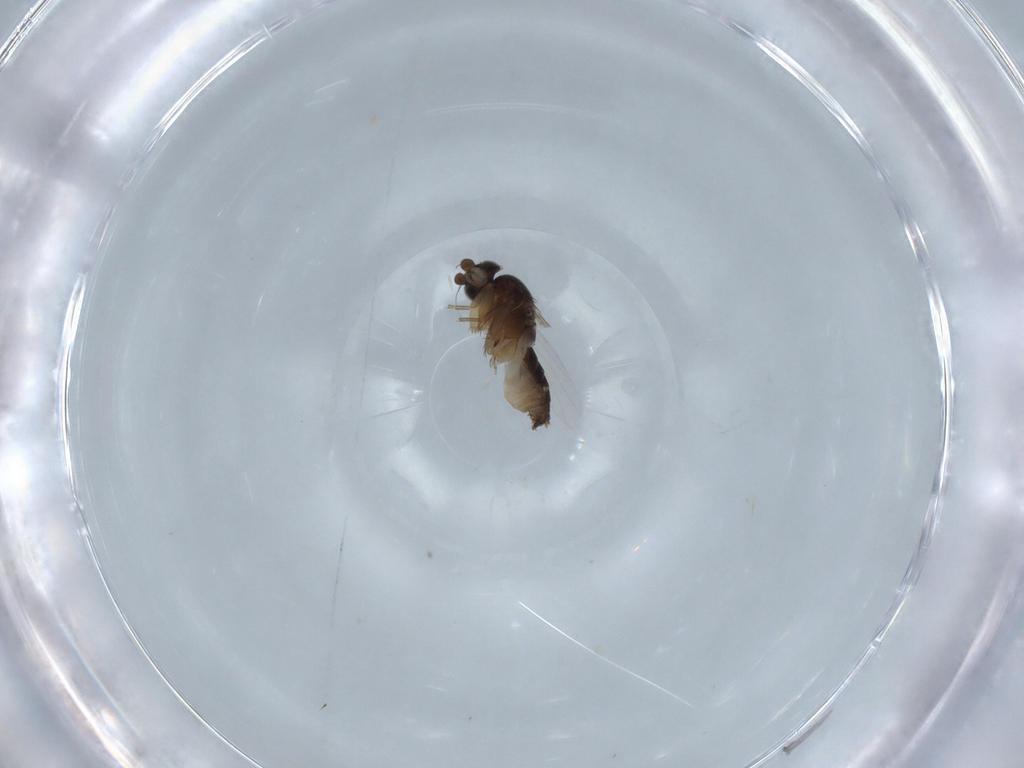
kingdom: Animalia
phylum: Arthropoda
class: Insecta
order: Diptera
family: Phoridae
